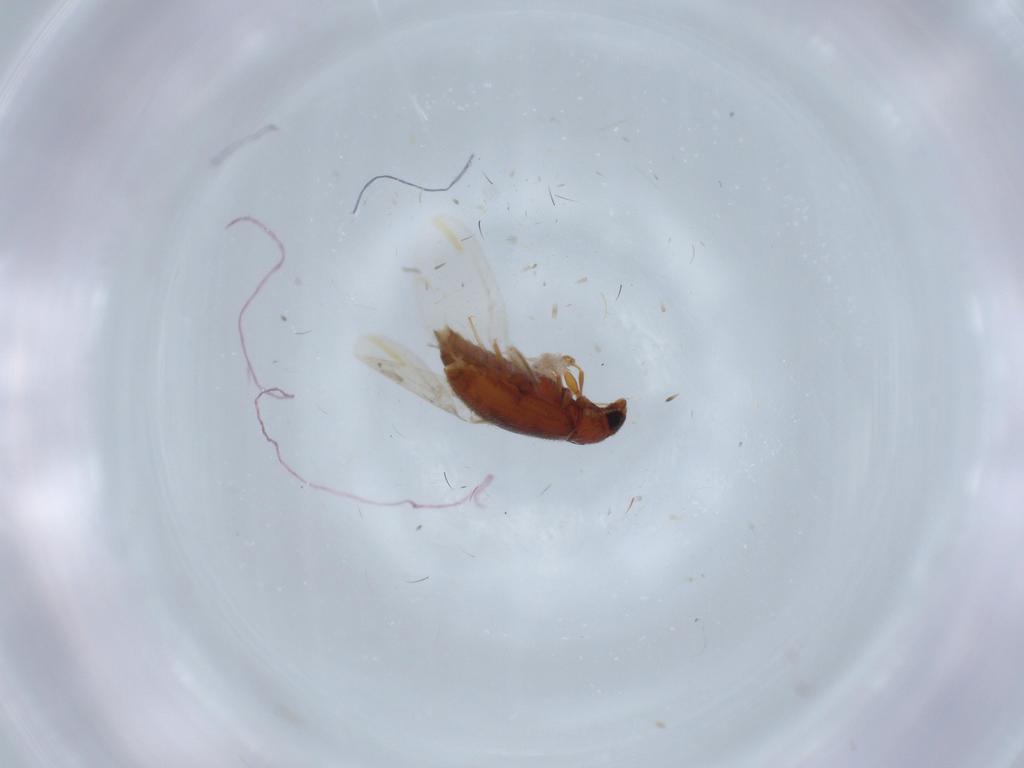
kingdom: Animalia
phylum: Arthropoda
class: Insecta
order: Coleoptera
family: Latridiidae
